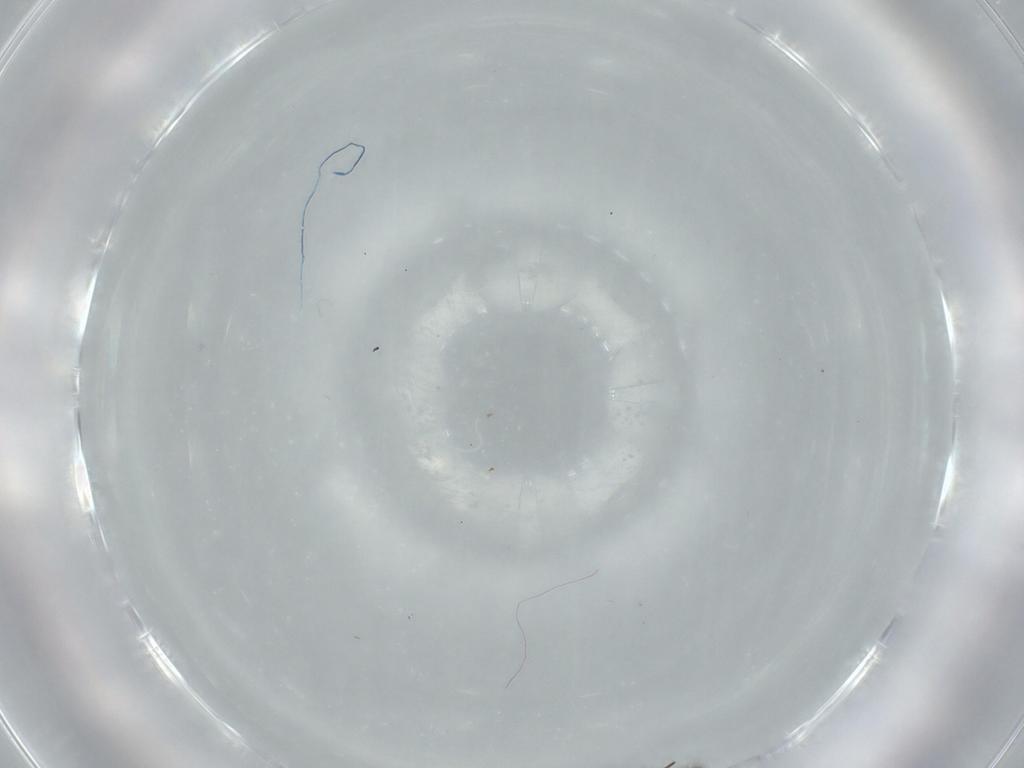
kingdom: Animalia
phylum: Arthropoda
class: Insecta
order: Diptera
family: Sciaridae
